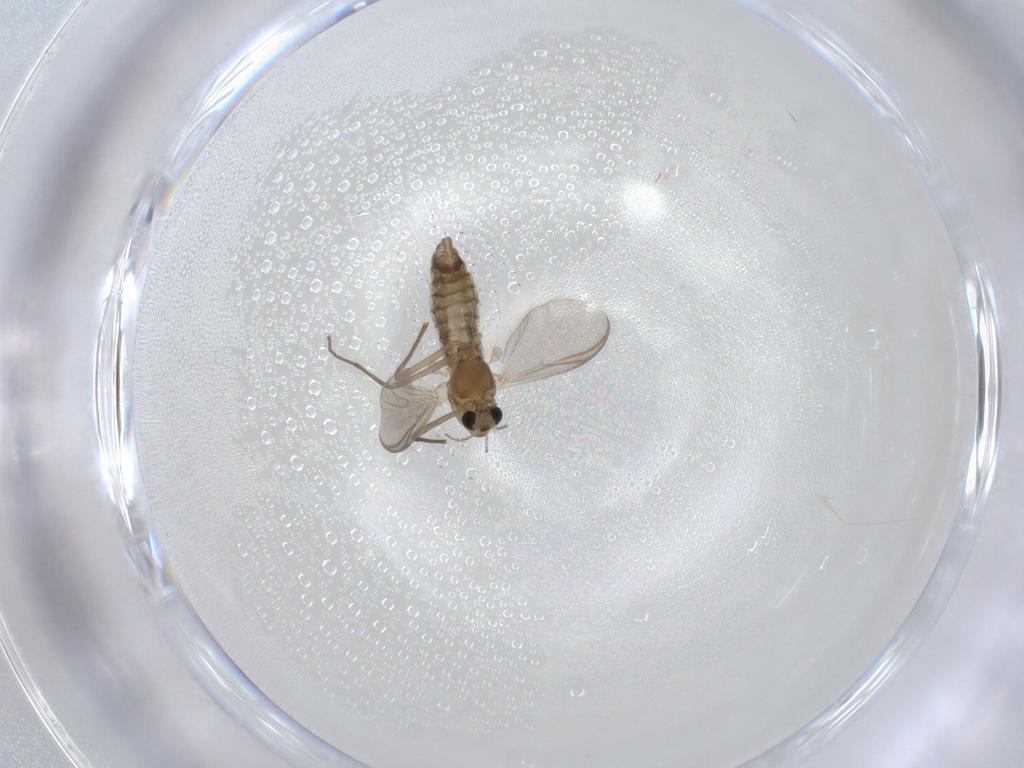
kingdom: Animalia
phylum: Arthropoda
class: Insecta
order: Diptera
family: Chironomidae
